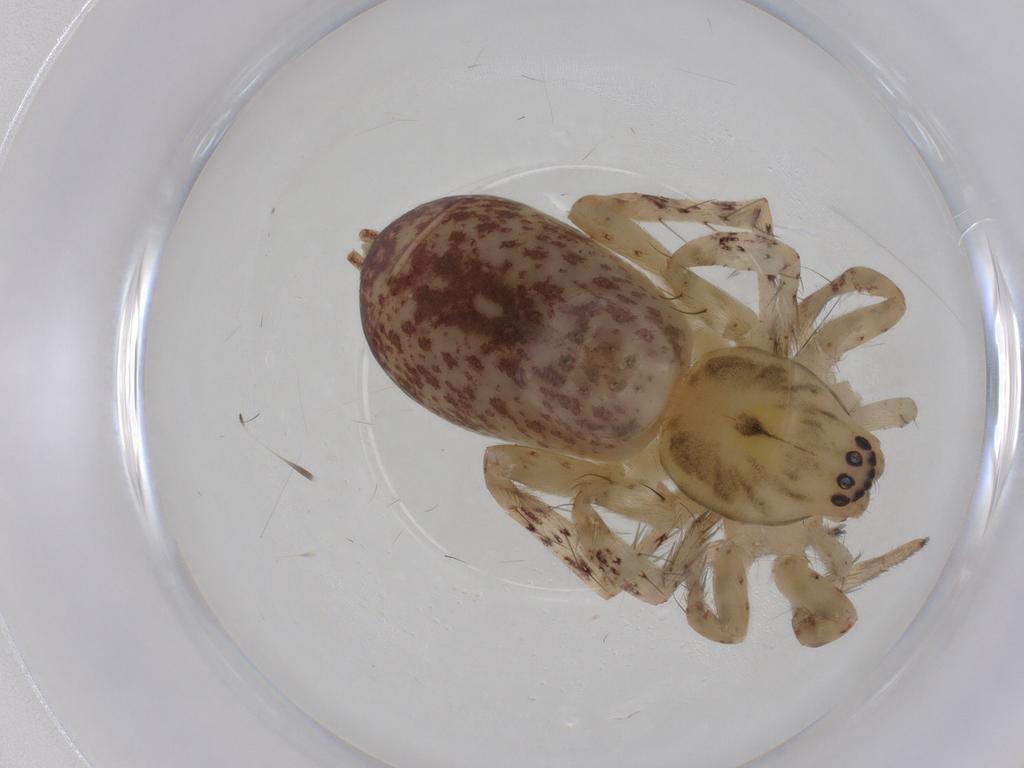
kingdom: Animalia
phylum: Arthropoda
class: Arachnida
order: Araneae
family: Anyphaenidae
